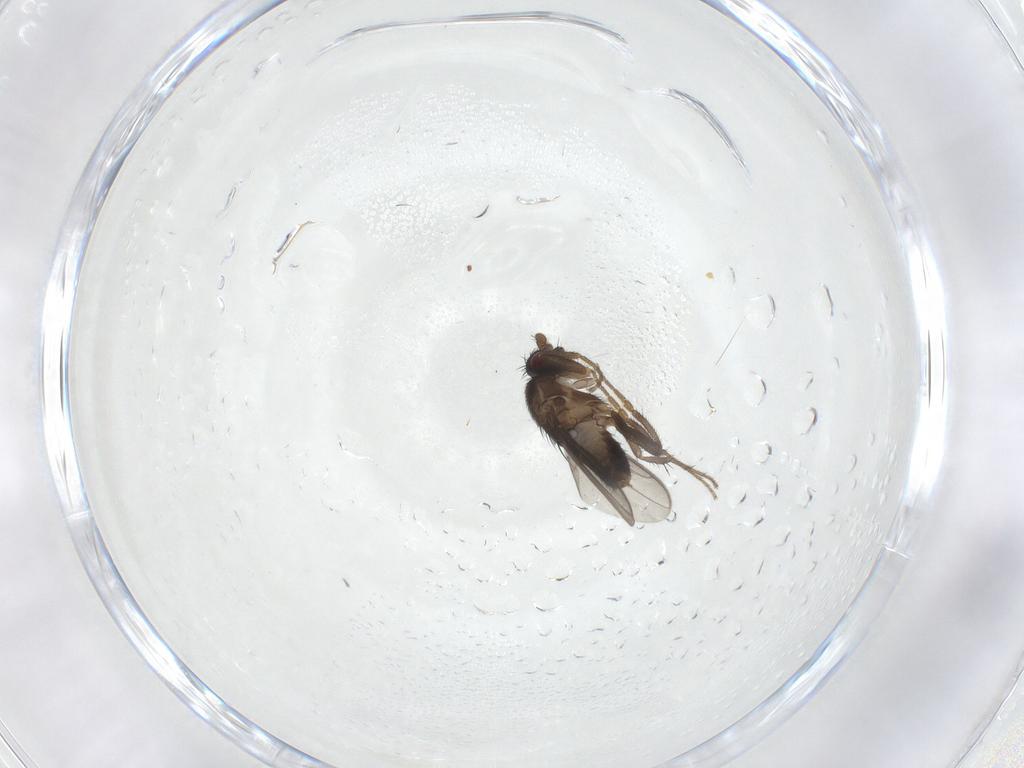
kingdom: Animalia
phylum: Arthropoda
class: Insecta
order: Diptera
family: Sphaeroceridae
